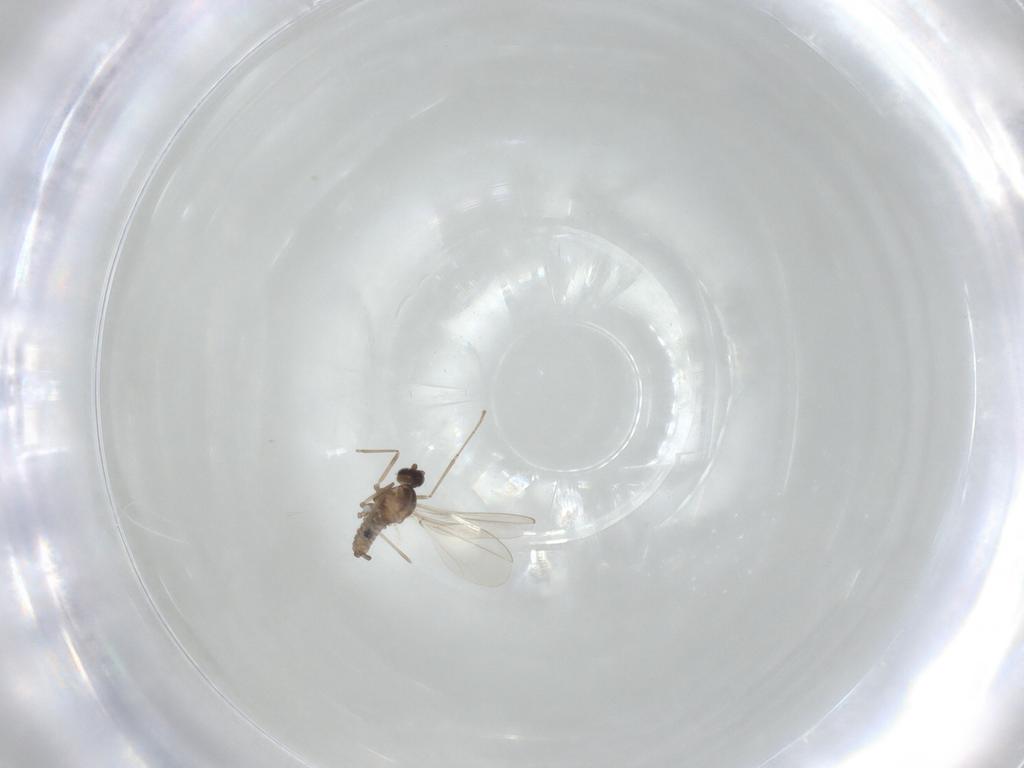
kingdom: Animalia
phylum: Arthropoda
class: Insecta
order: Diptera
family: Cecidomyiidae
